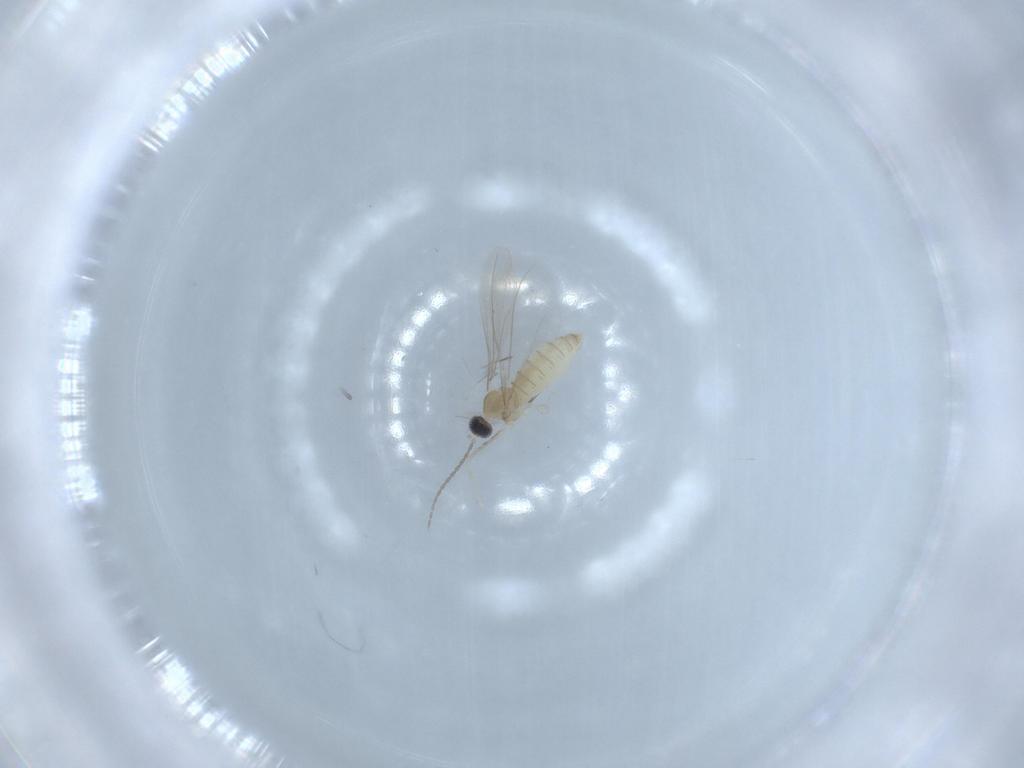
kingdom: Animalia
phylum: Arthropoda
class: Insecta
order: Diptera
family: Cecidomyiidae
